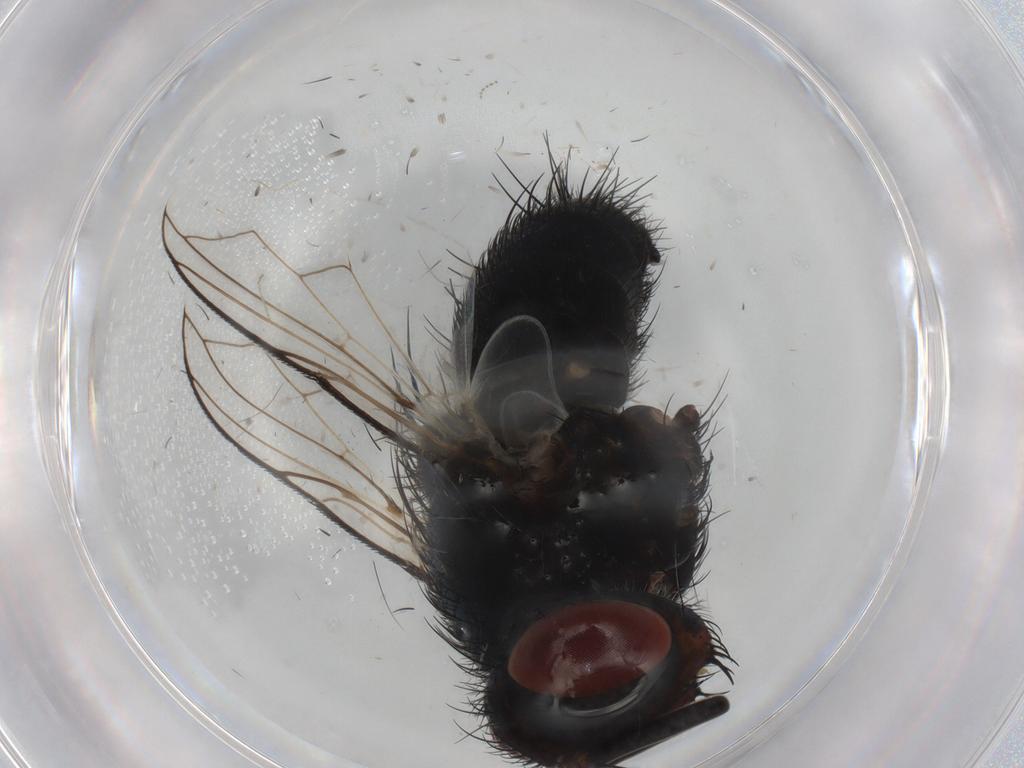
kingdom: Animalia
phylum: Arthropoda
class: Insecta
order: Diptera
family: Tachinidae
